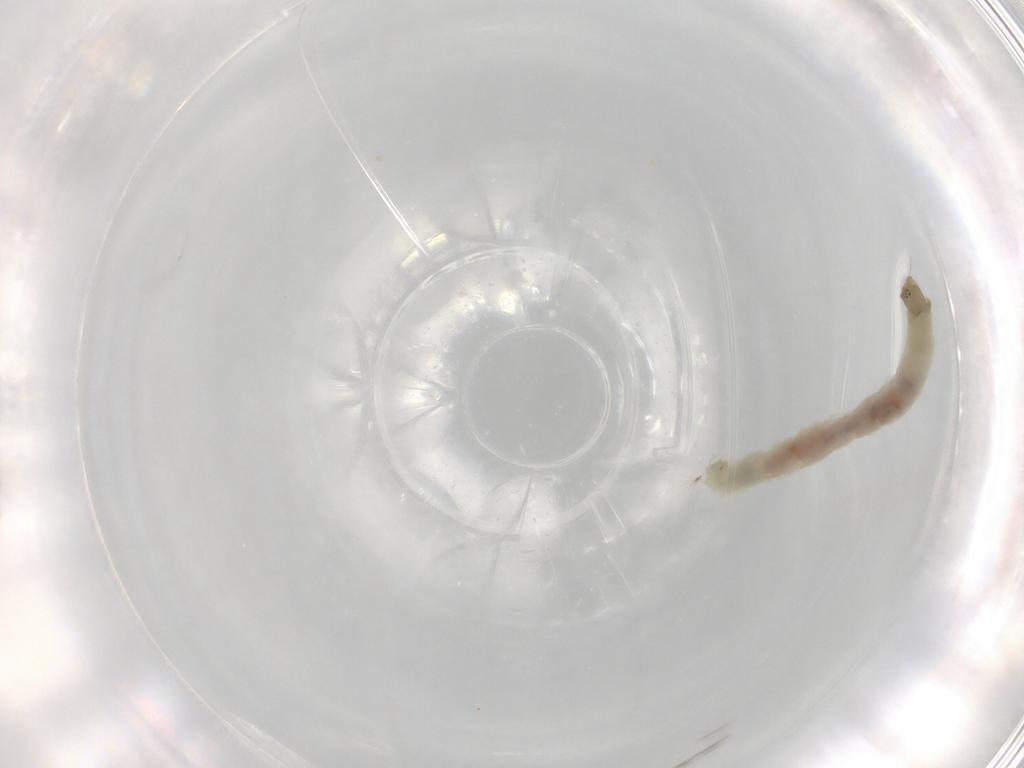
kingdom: Animalia
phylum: Arthropoda
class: Insecta
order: Diptera
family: Chironomidae
